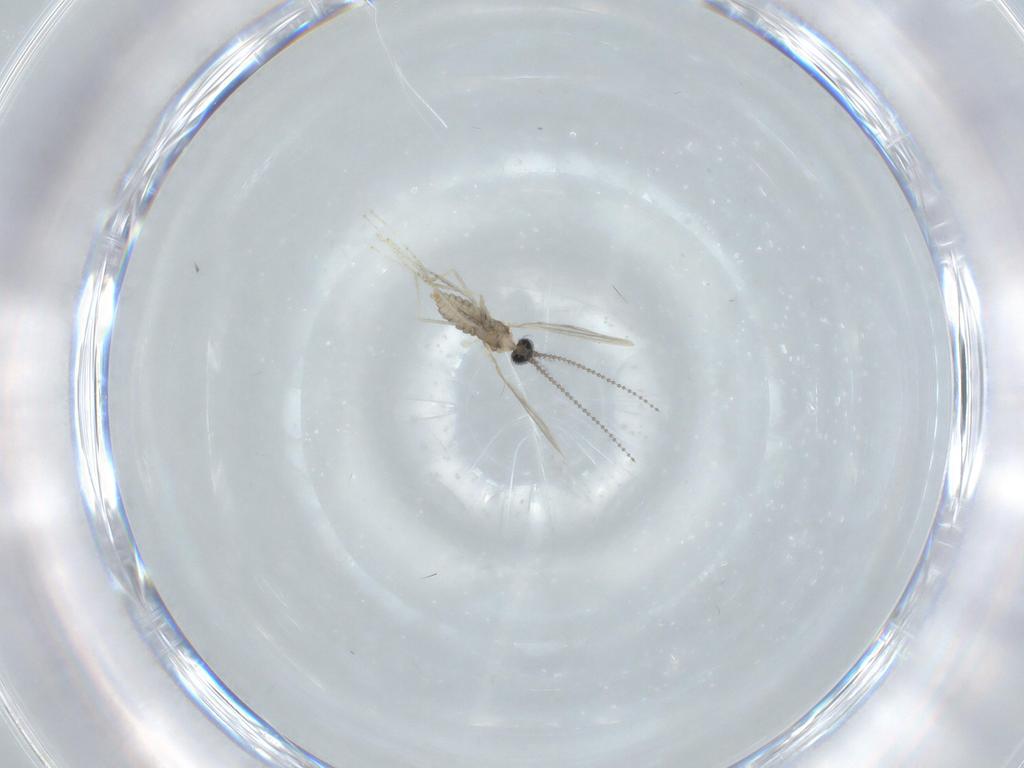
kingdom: Animalia
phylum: Arthropoda
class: Insecta
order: Diptera
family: Cecidomyiidae
